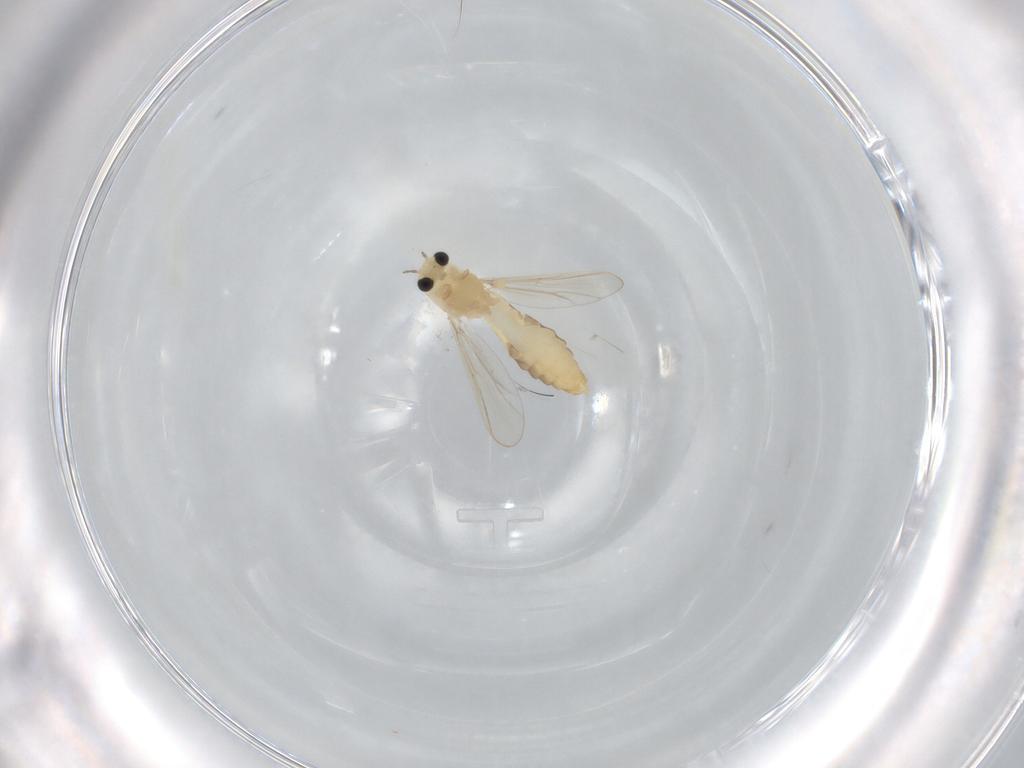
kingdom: Animalia
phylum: Arthropoda
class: Insecta
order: Diptera
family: Chironomidae
